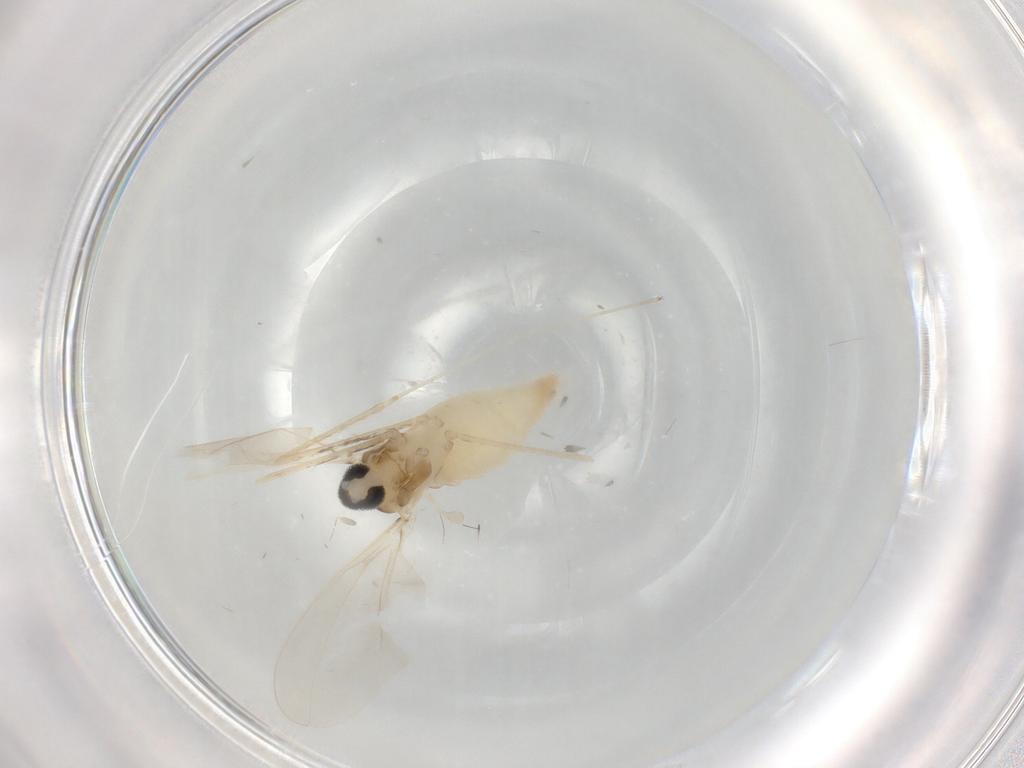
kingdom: Animalia
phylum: Arthropoda
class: Insecta
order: Diptera
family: Cecidomyiidae
